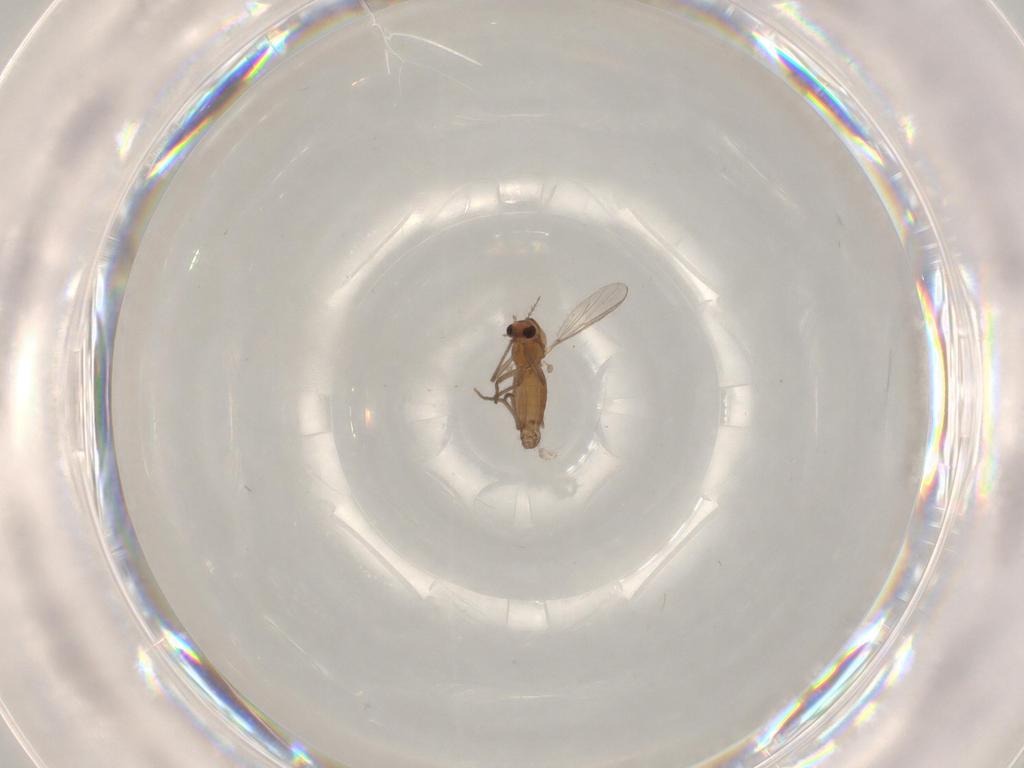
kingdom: Animalia
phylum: Arthropoda
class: Insecta
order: Diptera
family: Chironomidae
